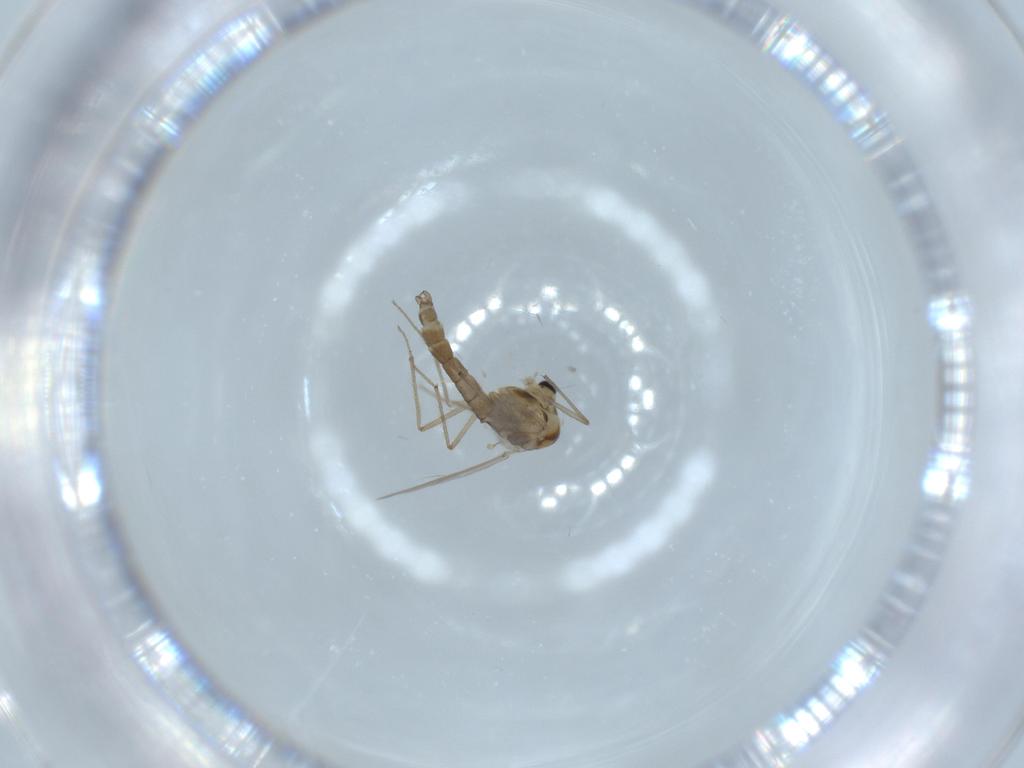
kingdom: Animalia
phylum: Arthropoda
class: Insecta
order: Diptera
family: Chironomidae
